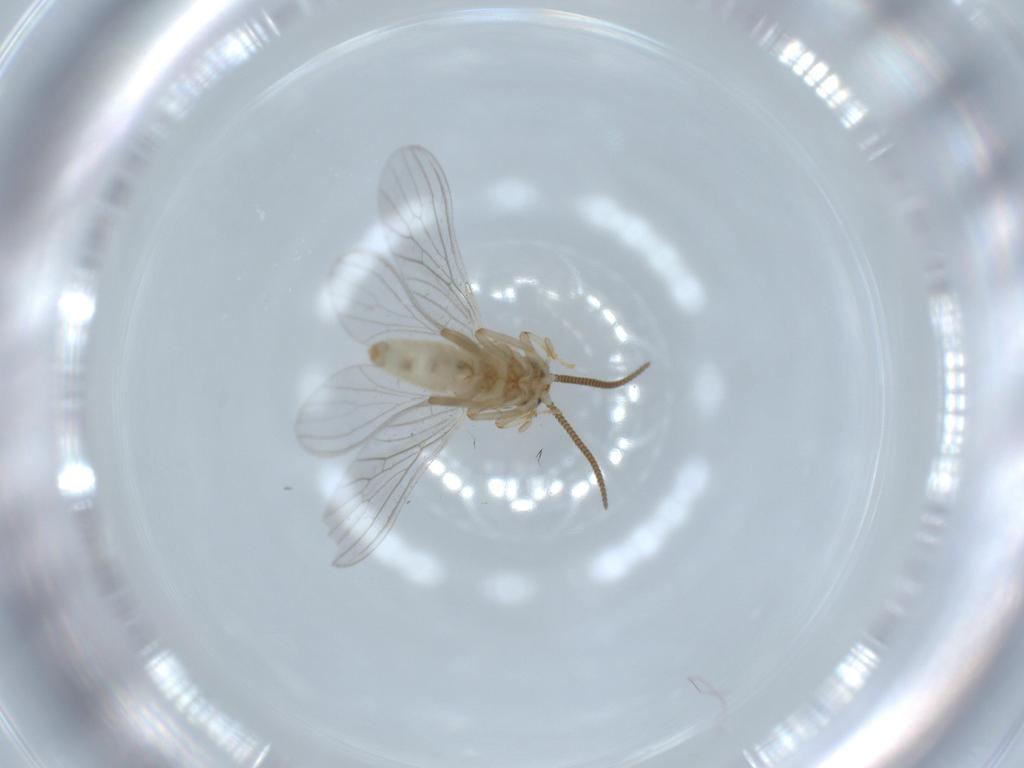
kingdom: Animalia
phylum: Arthropoda
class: Insecta
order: Neuroptera
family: Coniopterygidae
